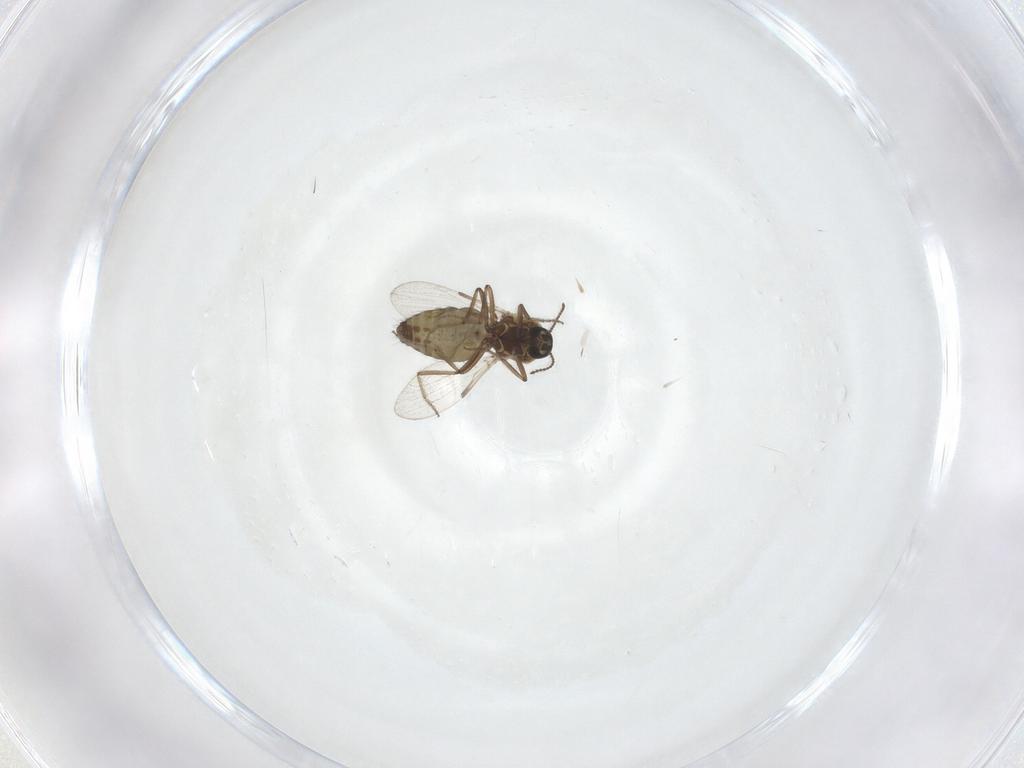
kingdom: Animalia
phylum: Arthropoda
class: Insecta
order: Diptera
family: Ceratopogonidae
